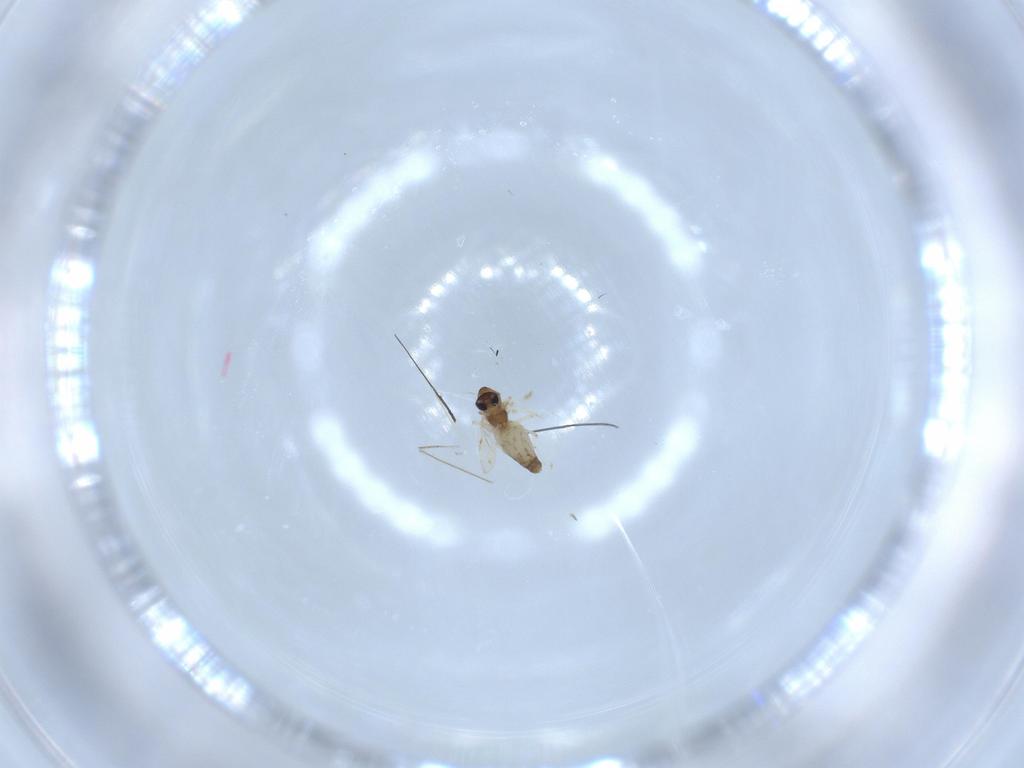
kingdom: Animalia
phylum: Arthropoda
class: Insecta
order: Diptera
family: Chironomidae
